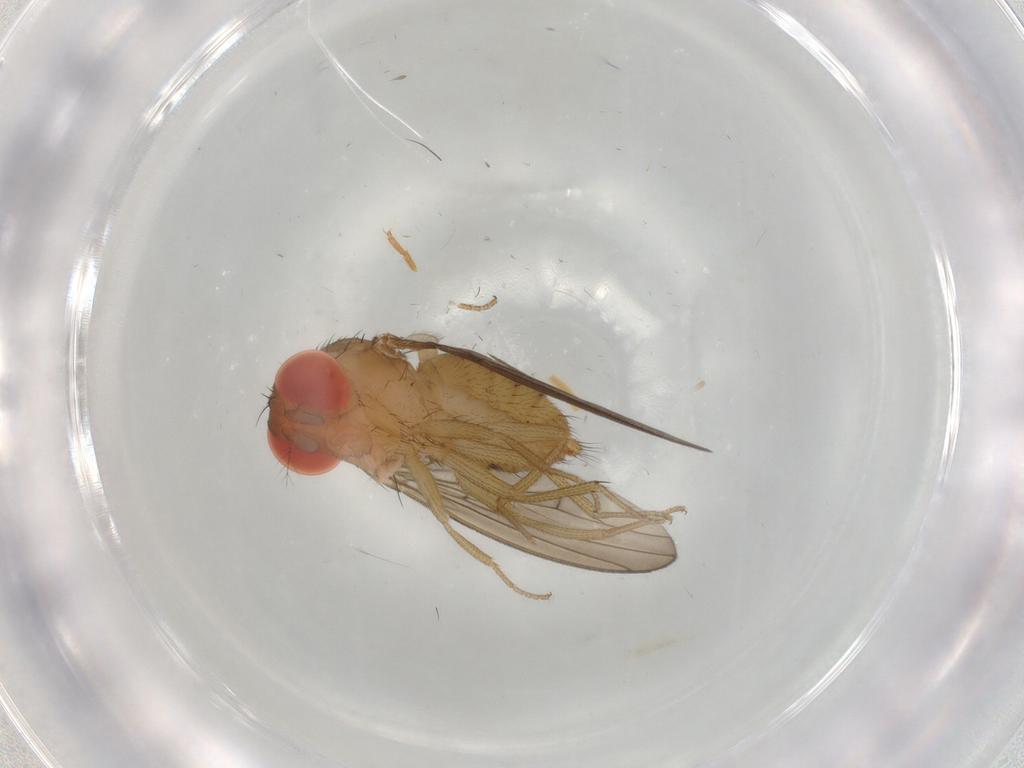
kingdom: Animalia
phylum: Arthropoda
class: Insecta
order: Diptera
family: Drosophilidae
